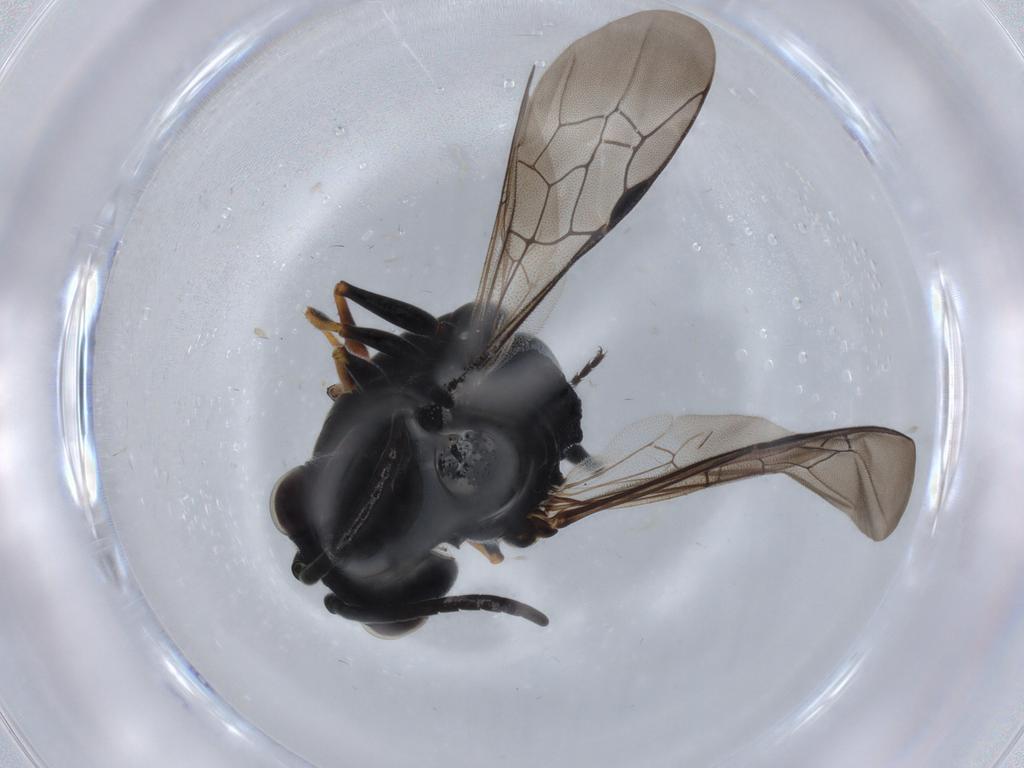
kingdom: Animalia
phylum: Arthropoda
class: Insecta
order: Hymenoptera
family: Crabronidae
